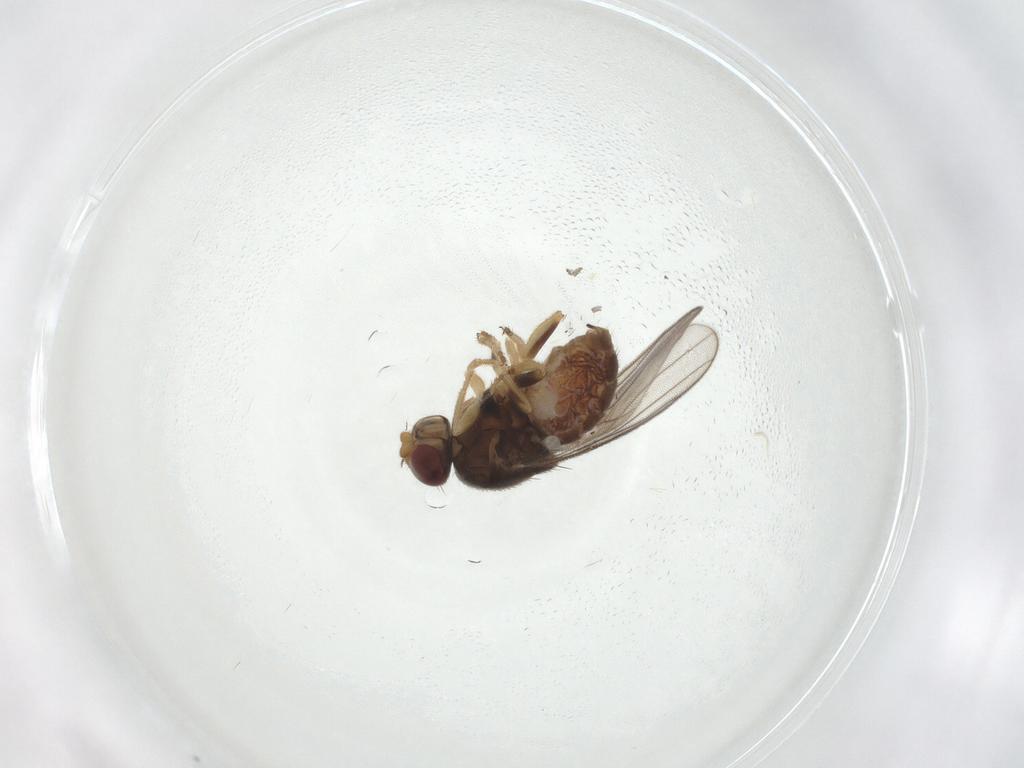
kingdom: Animalia
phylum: Arthropoda
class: Insecta
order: Diptera
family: Chloropidae
